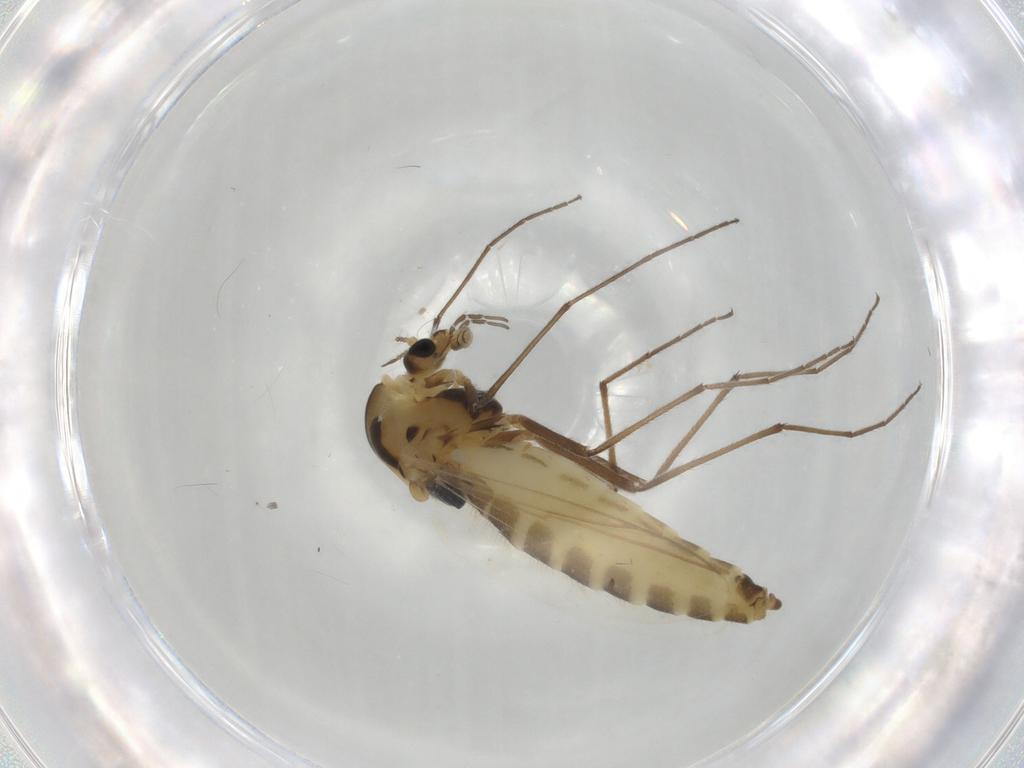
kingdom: Animalia
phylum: Arthropoda
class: Insecta
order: Diptera
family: Chironomidae
